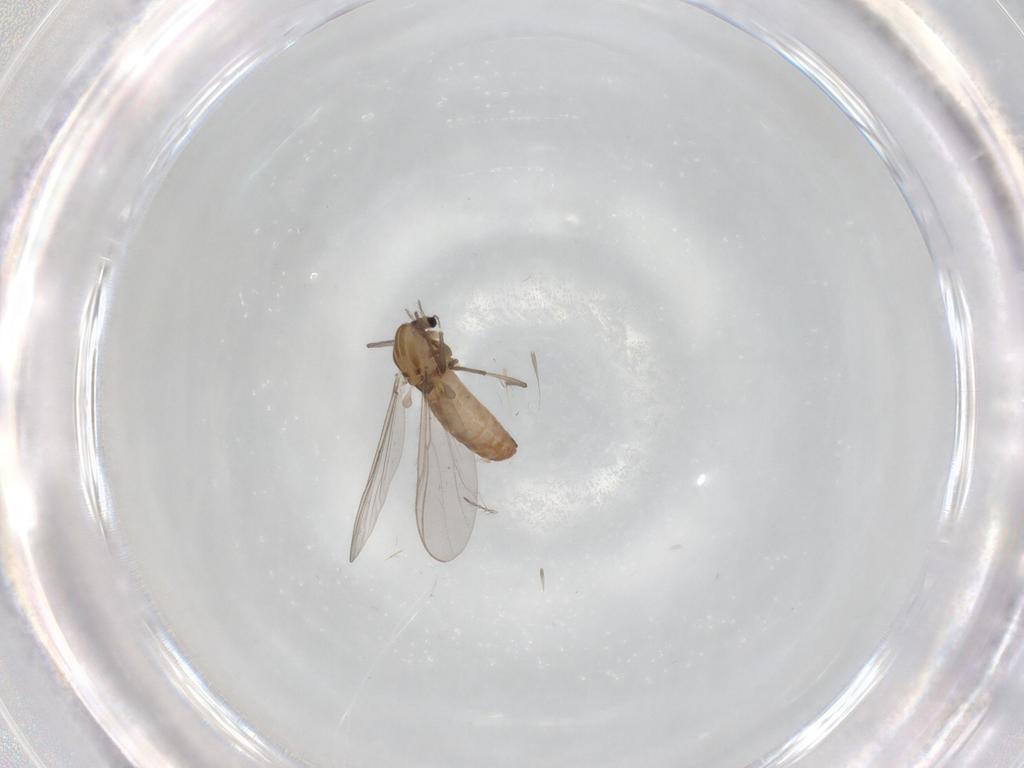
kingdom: Animalia
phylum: Arthropoda
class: Insecta
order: Diptera
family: Chironomidae
